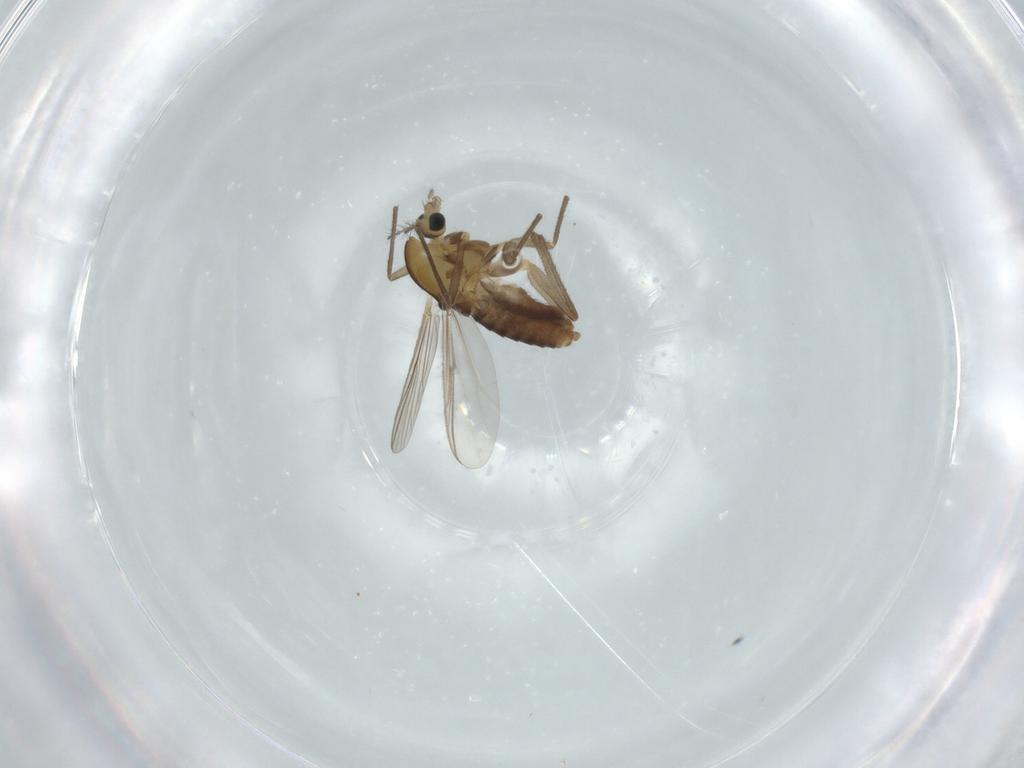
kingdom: Animalia
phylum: Arthropoda
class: Insecta
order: Diptera
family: Chironomidae
